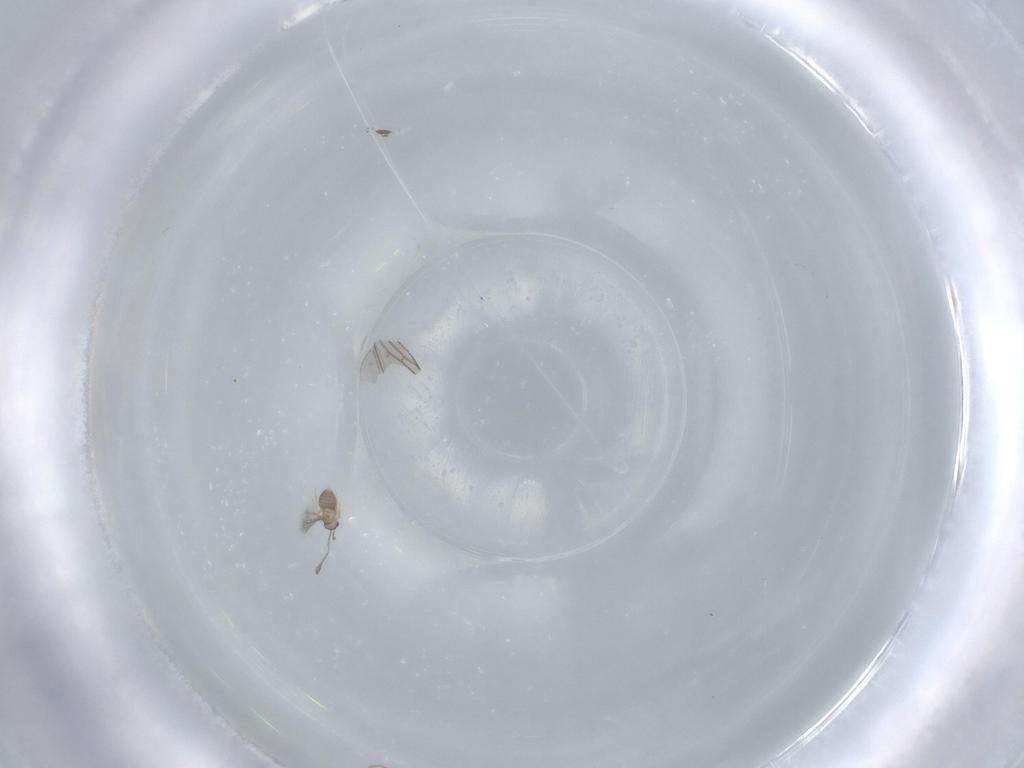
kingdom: Animalia
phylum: Arthropoda
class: Insecta
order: Hymenoptera
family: Mymaridae
